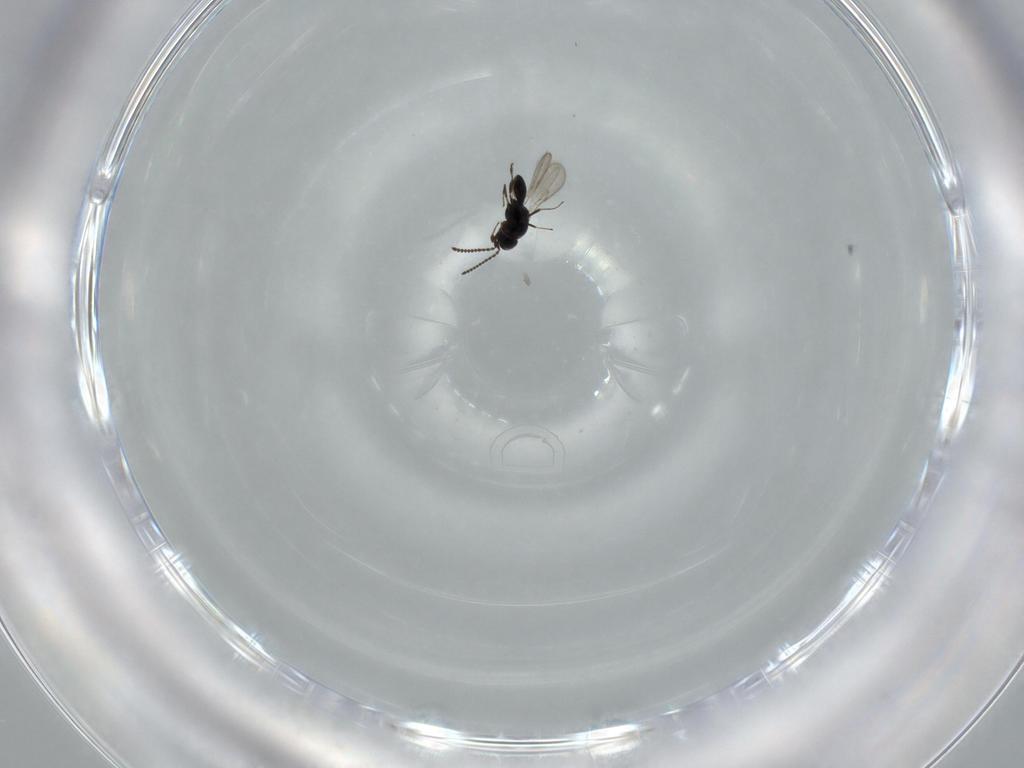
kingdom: Animalia
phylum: Arthropoda
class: Insecta
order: Hymenoptera
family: Scelionidae
